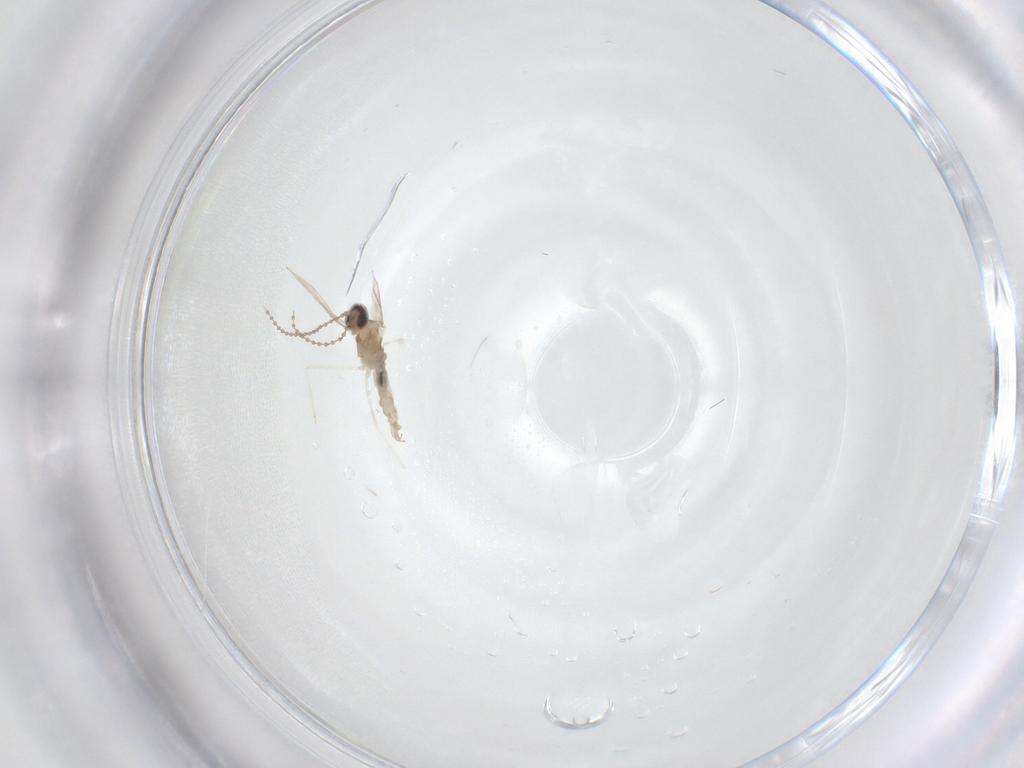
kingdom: Animalia
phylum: Arthropoda
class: Insecta
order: Diptera
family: Cecidomyiidae
